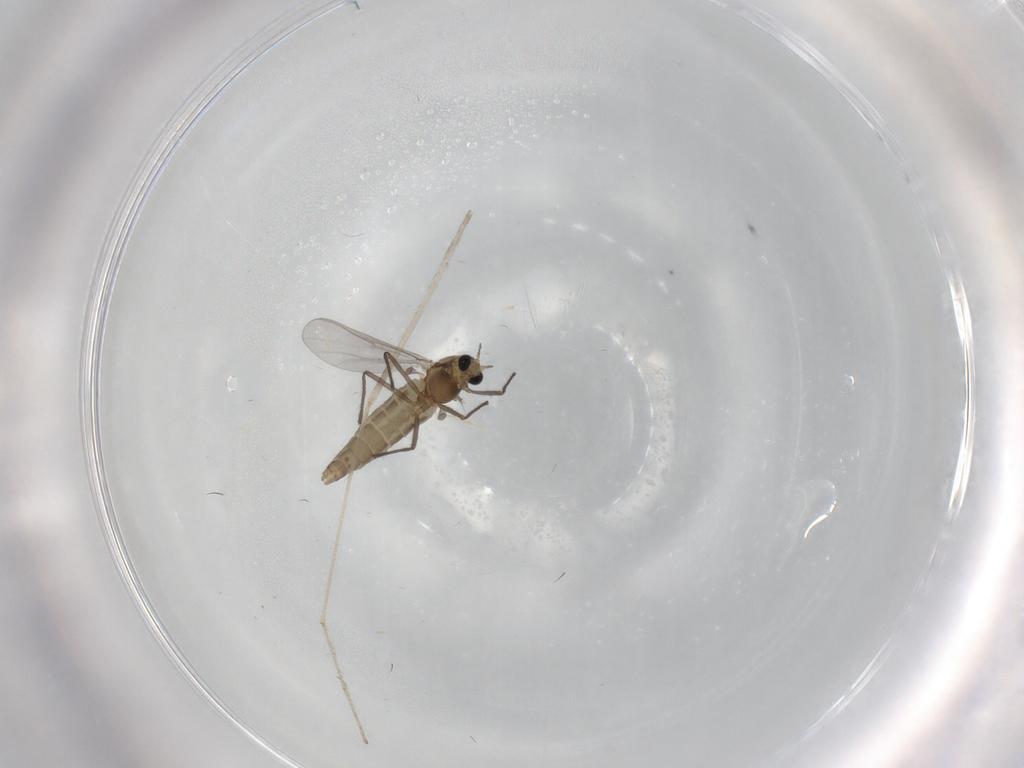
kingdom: Animalia
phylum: Arthropoda
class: Insecta
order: Diptera
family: Limoniidae
